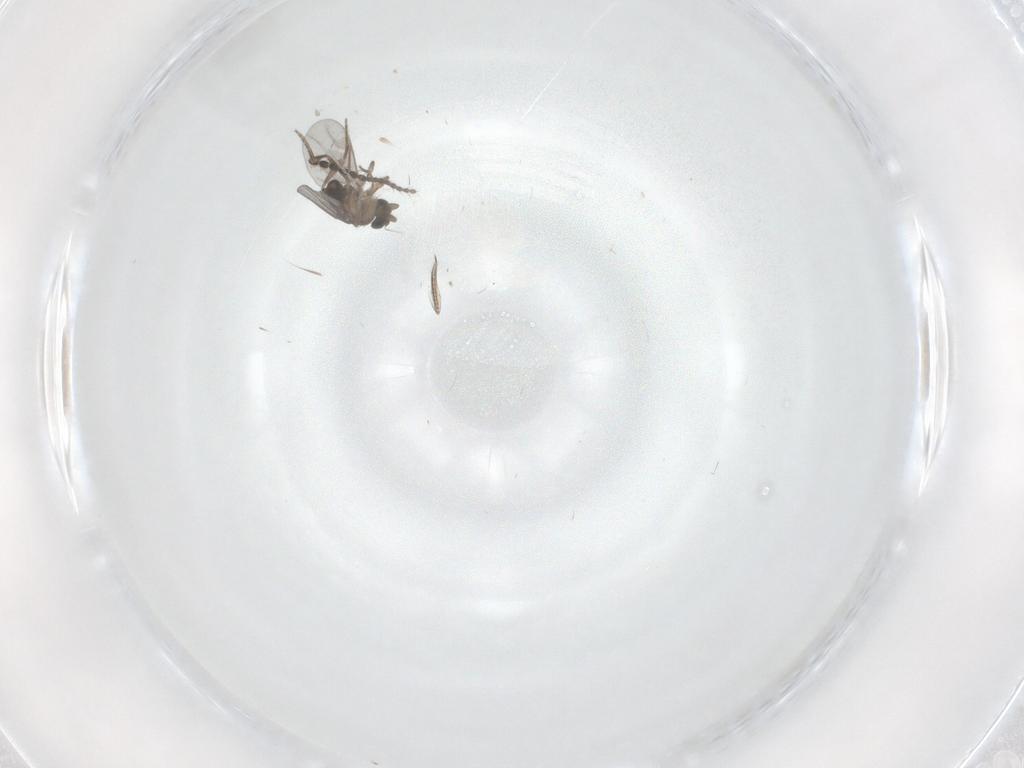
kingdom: Animalia
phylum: Arthropoda
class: Insecta
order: Diptera
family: Limoniidae
